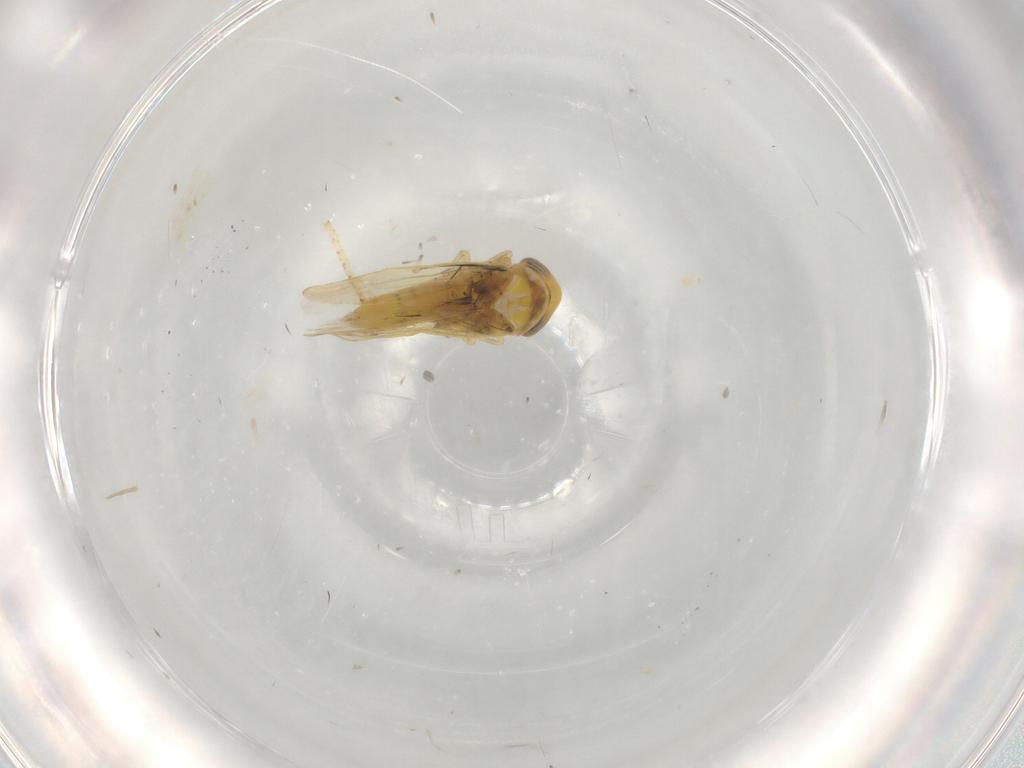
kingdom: Animalia
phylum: Arthropoda
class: Insecta
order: Hemiptera
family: Cicadellidae
